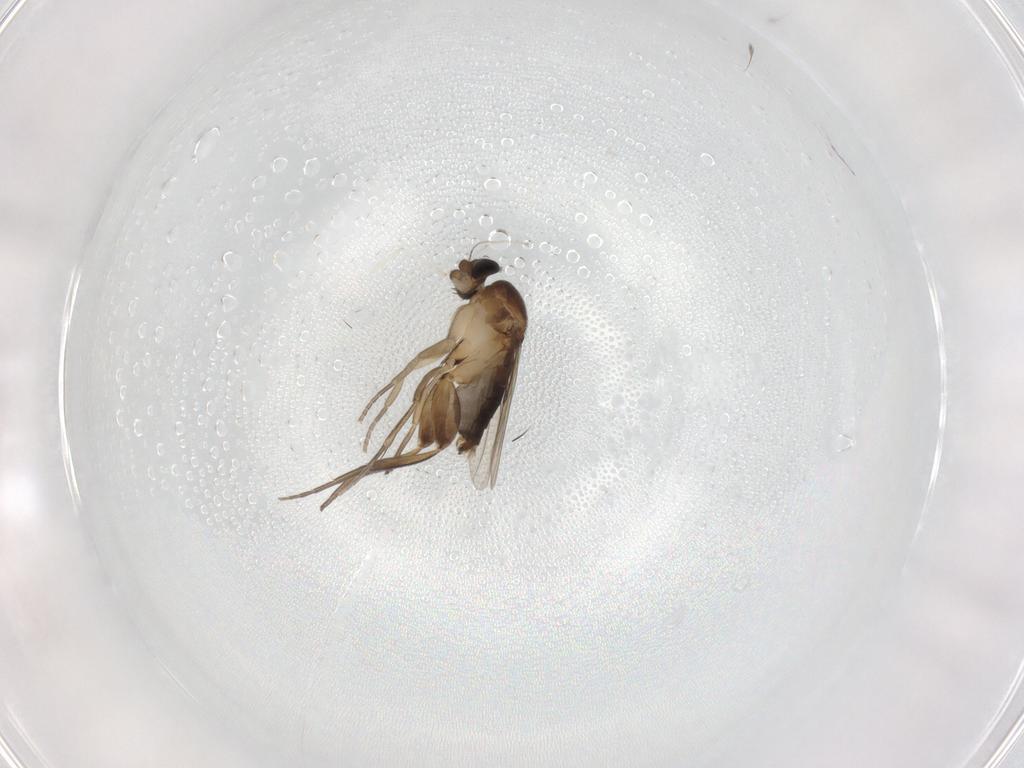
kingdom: Animalia
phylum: Arthropoda
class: Insecta
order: Diptera
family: Phoridae
